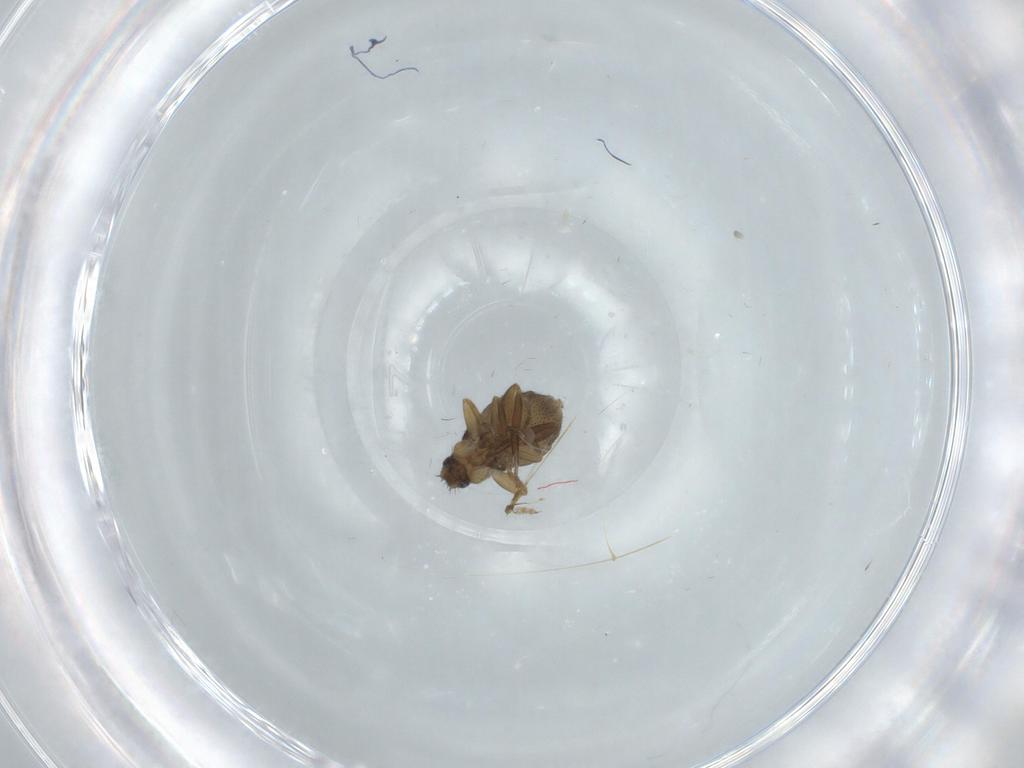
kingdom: Animalia
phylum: Arthropoda
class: Insecta
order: Diptera
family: Phoridae
